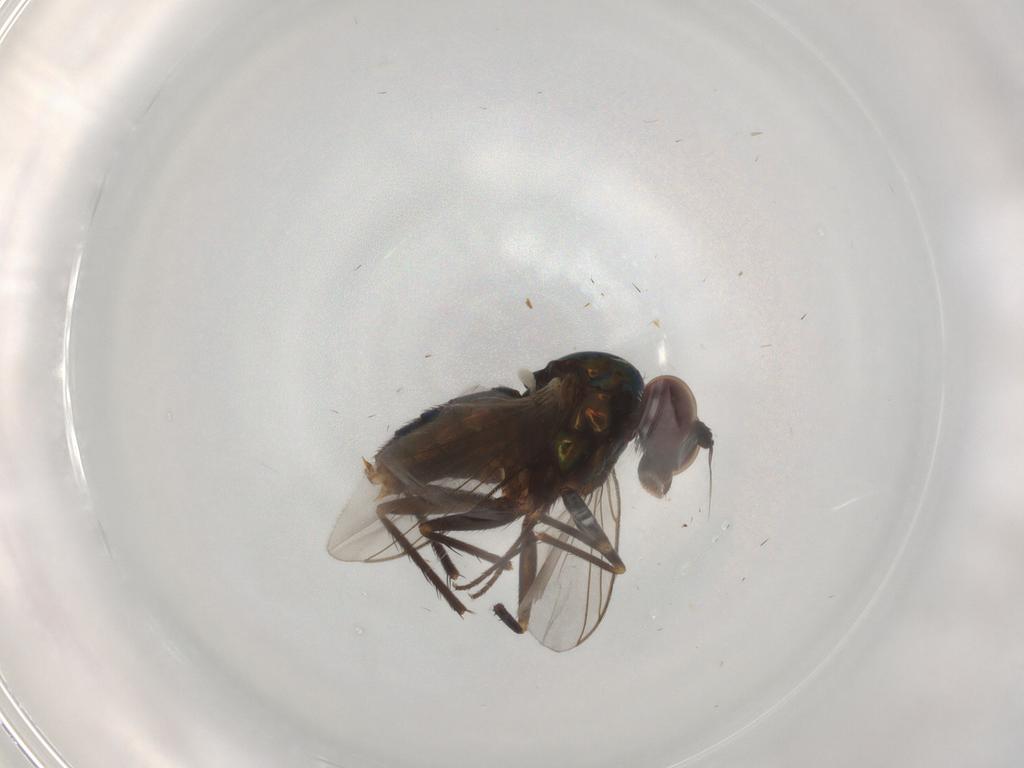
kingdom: Animalia
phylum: Arthropoda
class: Insecta
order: Diptera
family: Dolichopodidae
